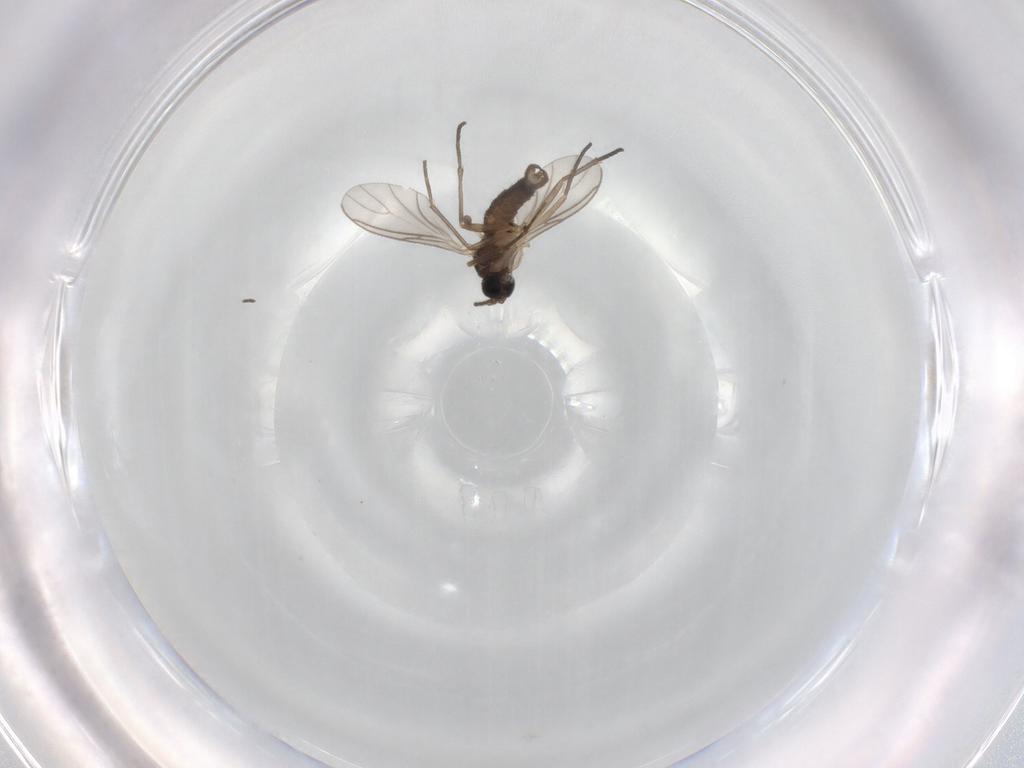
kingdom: Animalia
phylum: Arthropoda
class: Insecta
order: Diptera
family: Sciaridae
